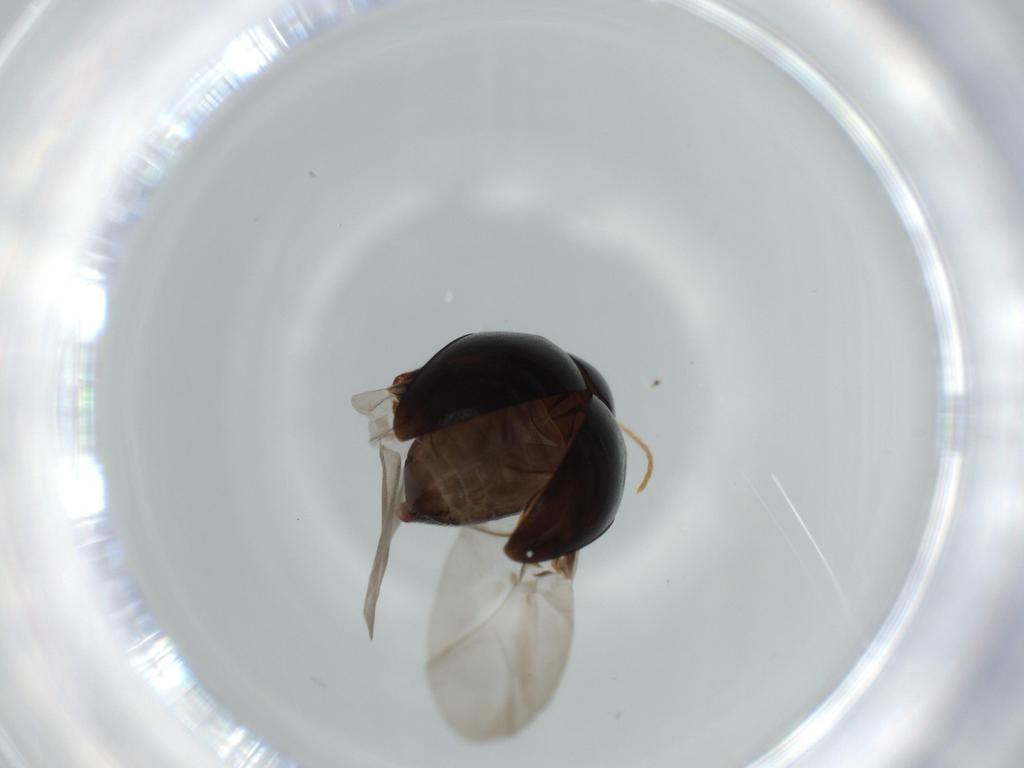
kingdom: Animalia
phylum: Arthropoda
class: Insecta
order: Coleoptera
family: Chrysomelidae
